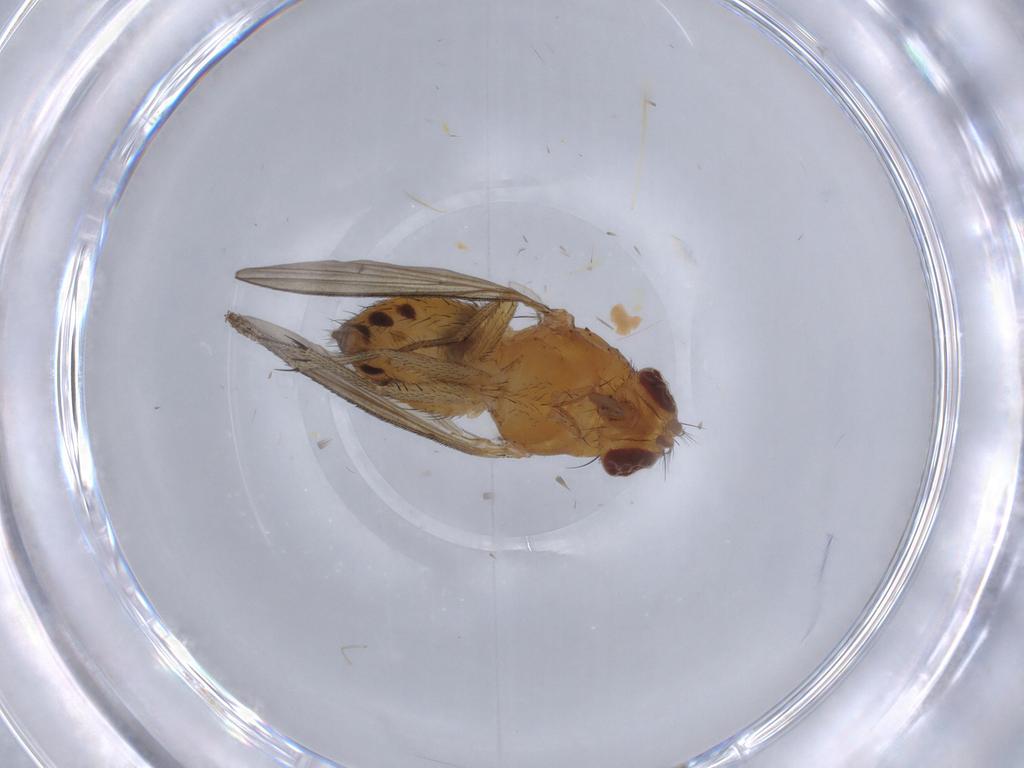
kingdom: Animalia
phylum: Arthropoda
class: Insecta
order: Diptera
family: Lauxaniidae
